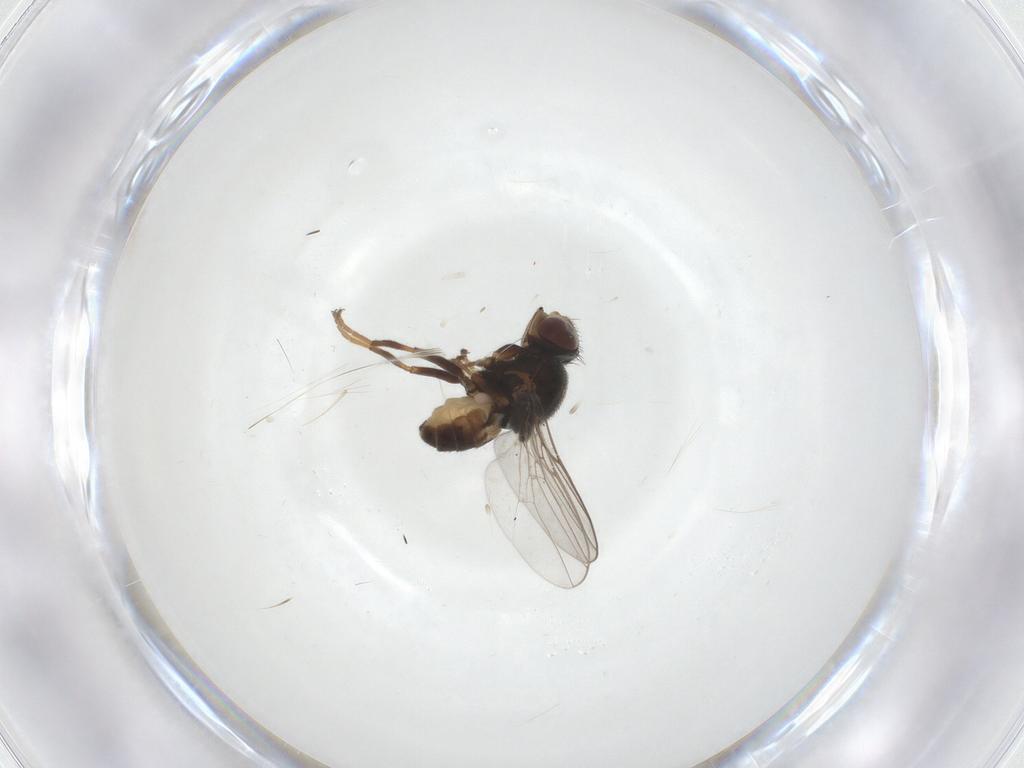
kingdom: Animalia
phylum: Arthropoda
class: Insecta
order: Diptera
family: Chloropidae
